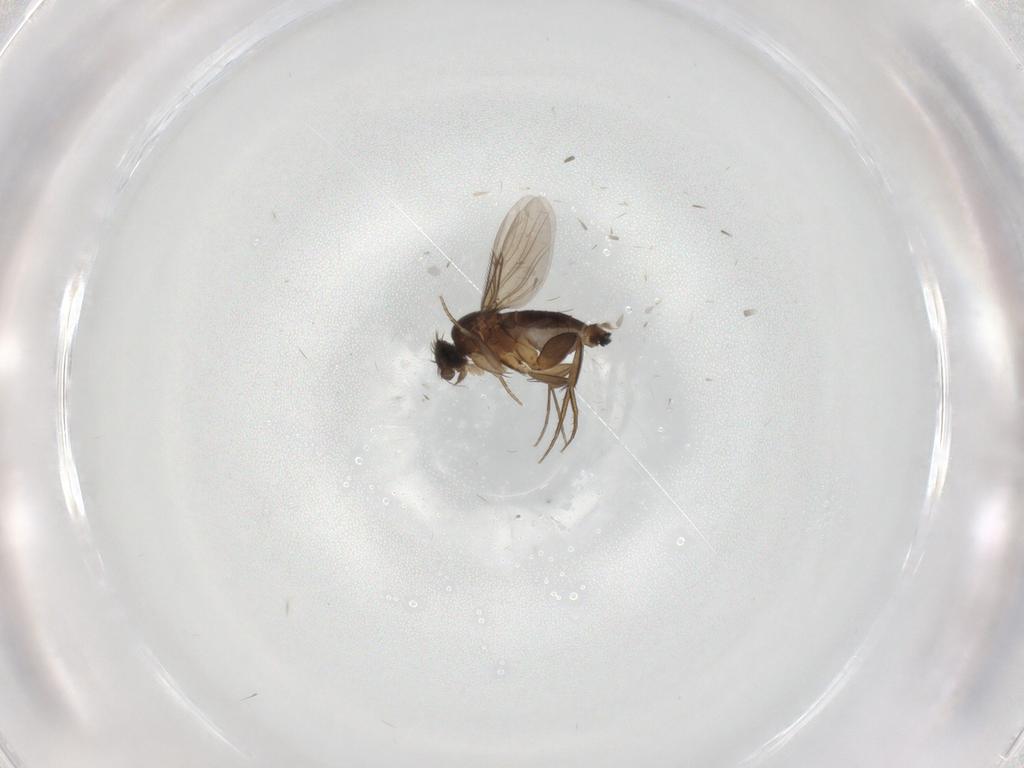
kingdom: Animalia
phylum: Arthropoda
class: Insecta
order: Diptera
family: Phoridae
